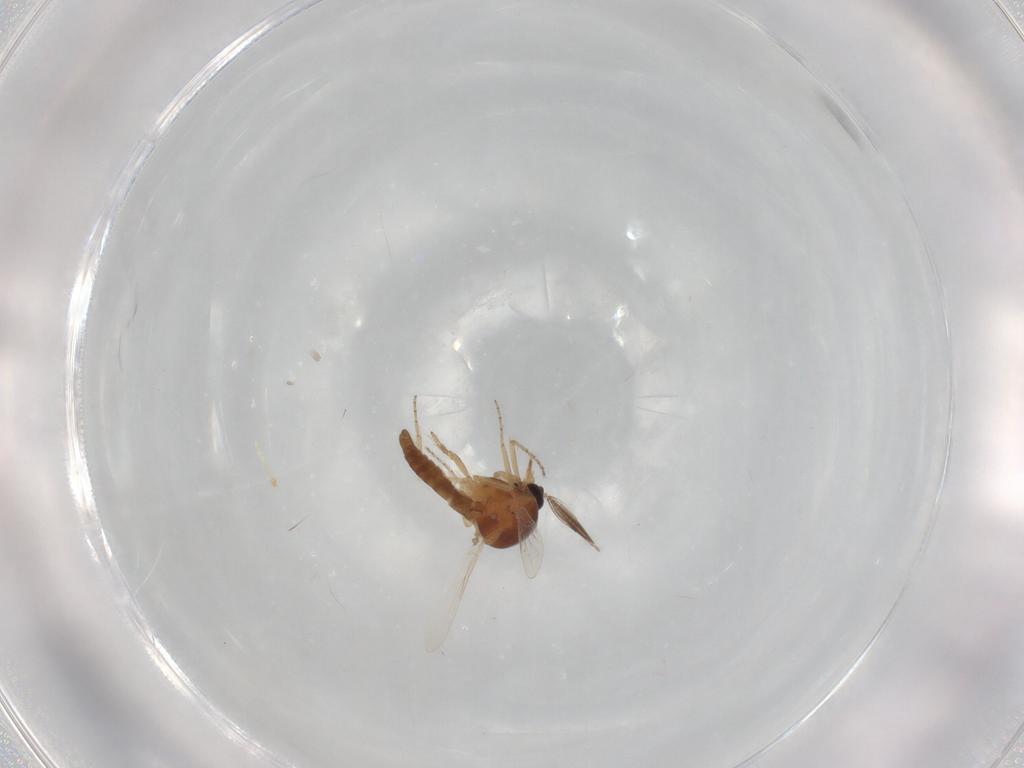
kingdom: Animalia
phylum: Arthropoda
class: Insecta
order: Diptera
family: Ceratopogonidae
